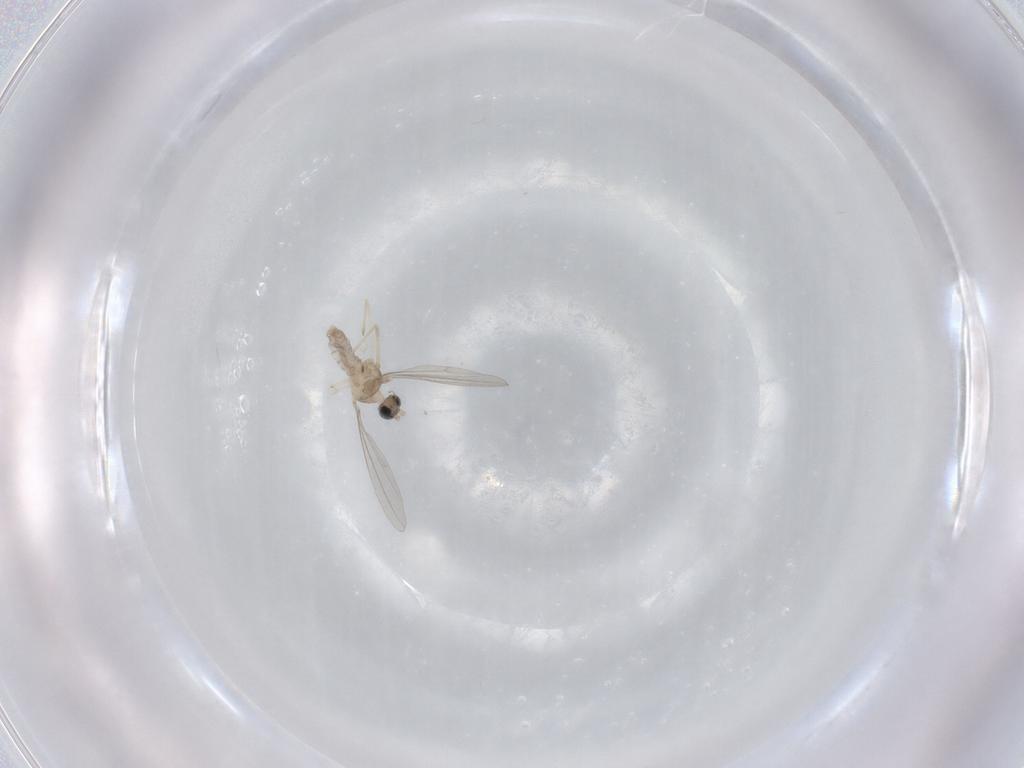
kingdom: Animalia
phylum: Arthropoda
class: Insecta
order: Diptera
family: Cecidomyiidae
